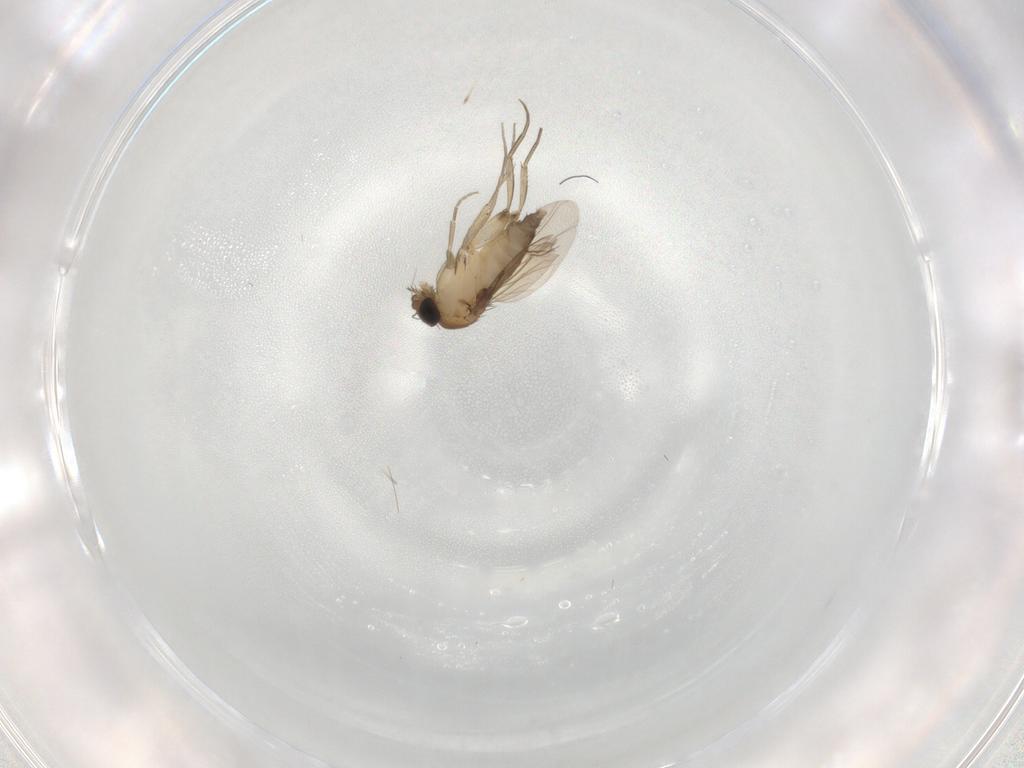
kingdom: Animalia
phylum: Arthropoda
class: Insecta
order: Diptera
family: Phoridae
